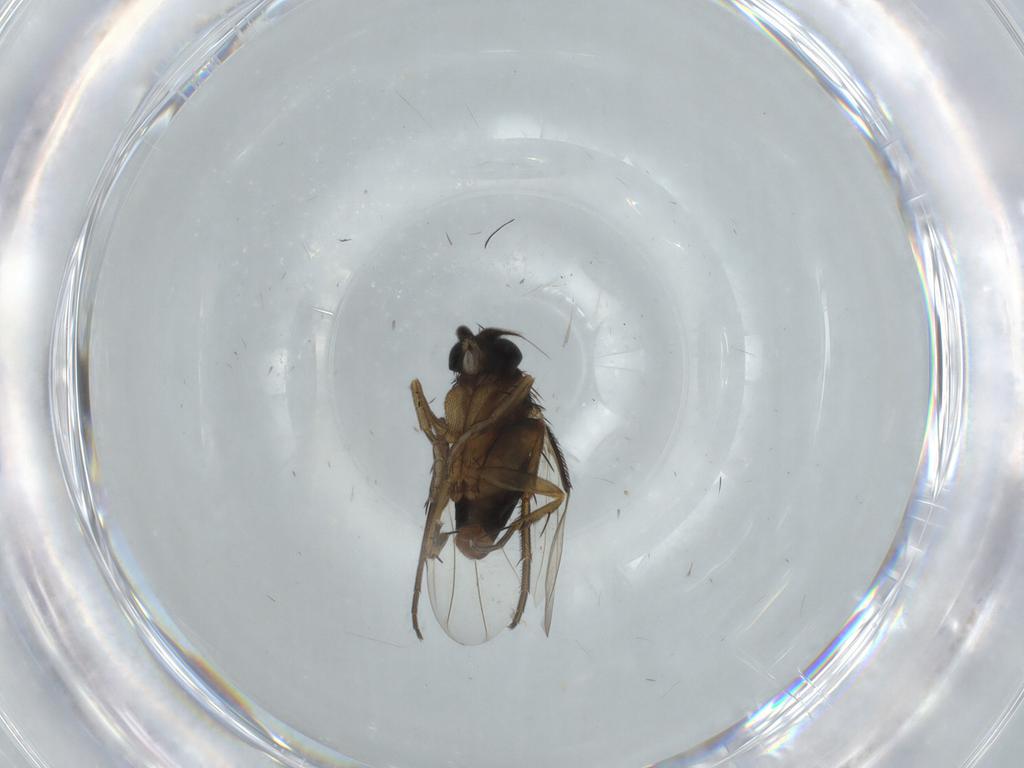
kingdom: Animalia
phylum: Arthropoda
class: Insecta
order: Diptera
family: Phoridae
